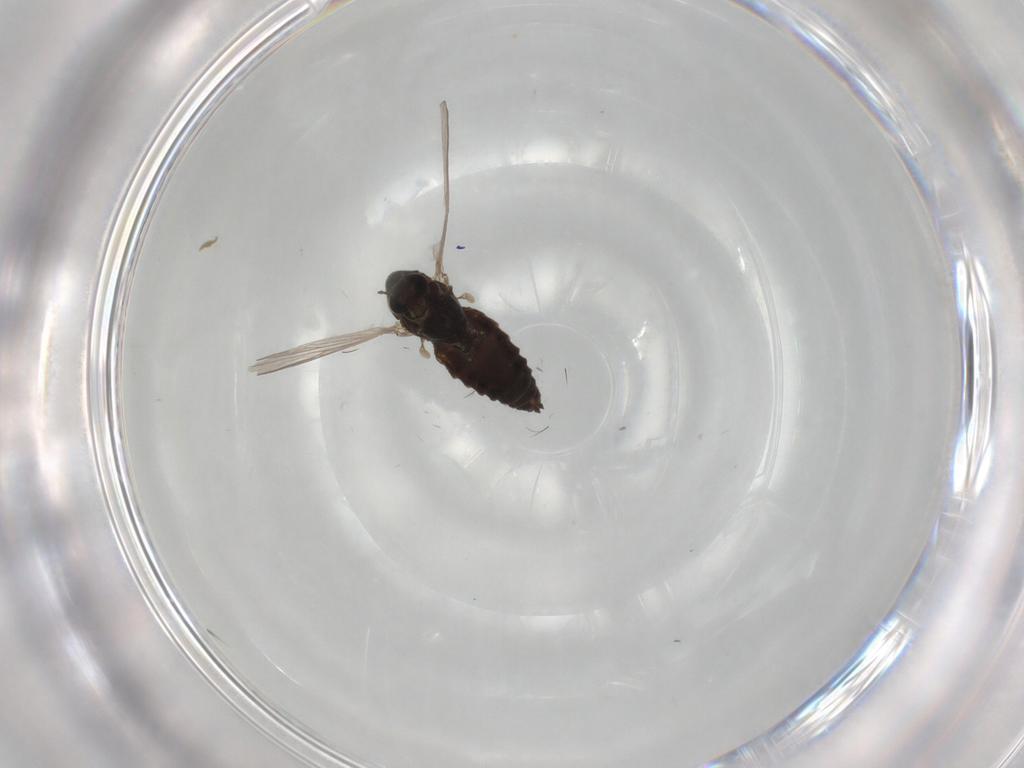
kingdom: Animalia
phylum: Arthropoda
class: Insecta
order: Diptera
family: Chironomidae
